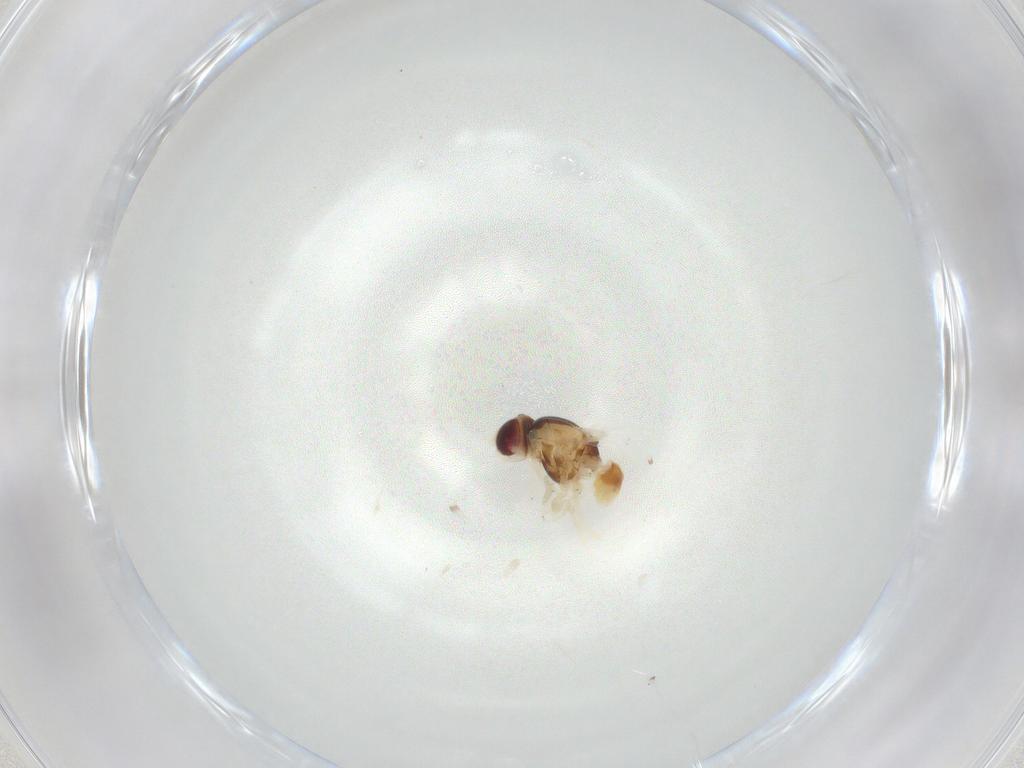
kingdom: Animalia
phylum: Arthropoda
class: Insecta
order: Diptera
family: Phoridae
